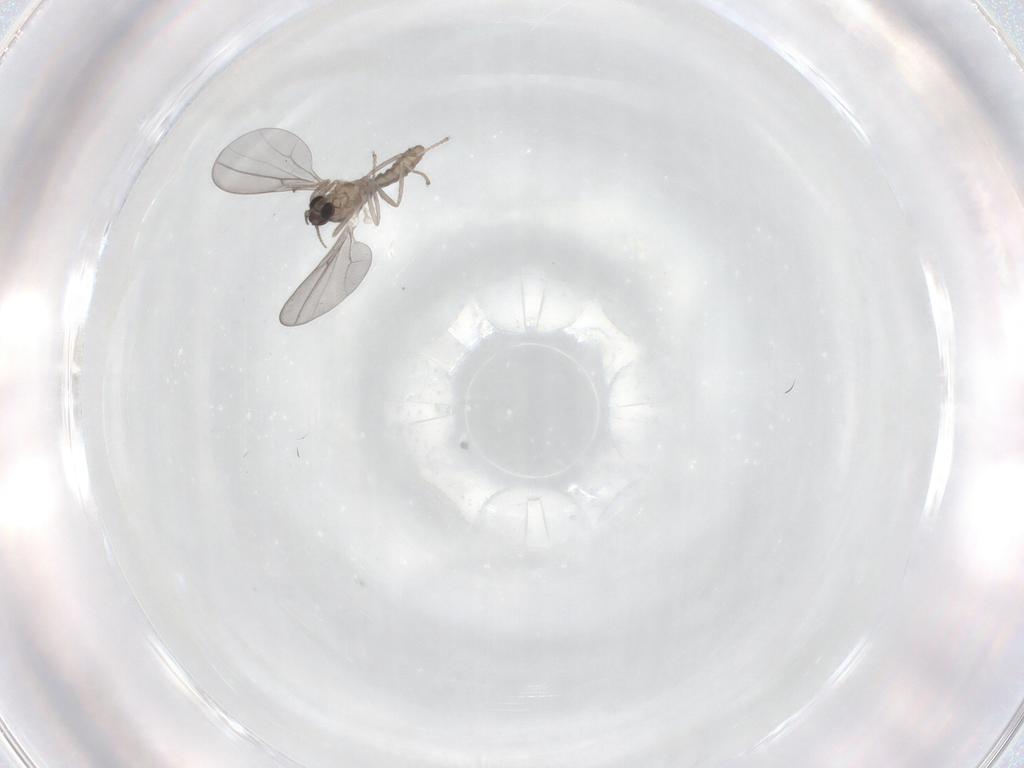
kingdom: Animalia
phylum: Arthropoda
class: Insecta
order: Diptera
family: Cecidomyiidae
